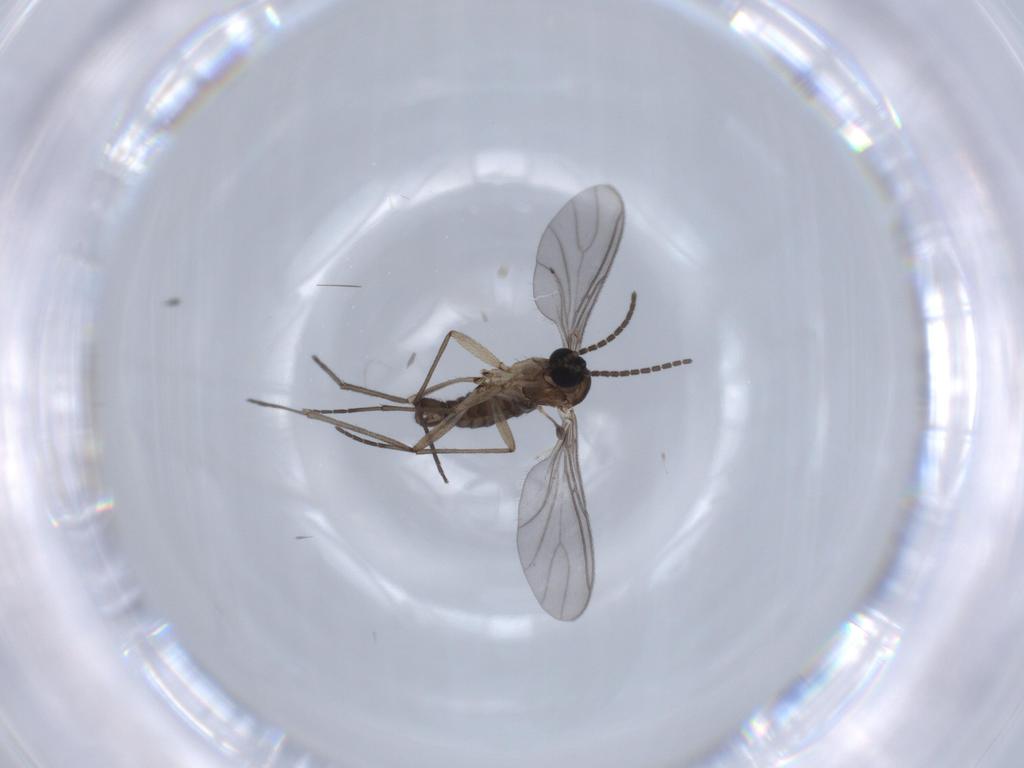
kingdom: Animalia
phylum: Arthropoda
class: Insecta
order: Diptera
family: Sciaridae
